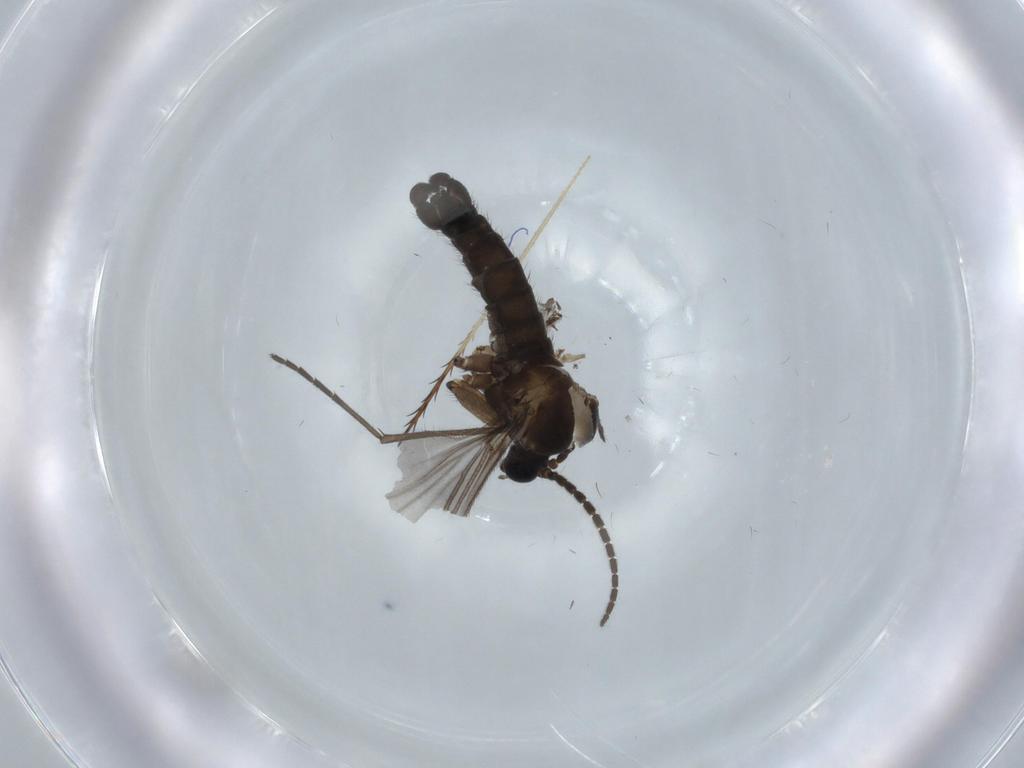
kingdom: Animalia
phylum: Arthropoda
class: Insecta
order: Diptera
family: Sciaridae
